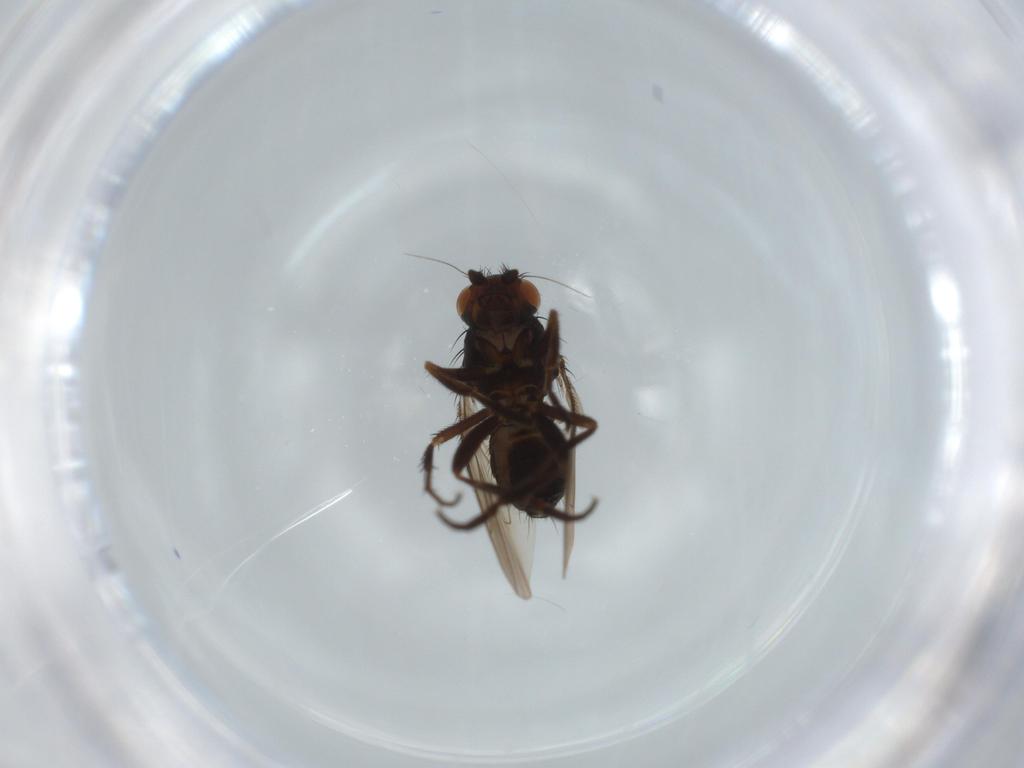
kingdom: Animalia
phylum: Arthropoda
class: Insecta
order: Diptera
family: Sphaeroceridae
